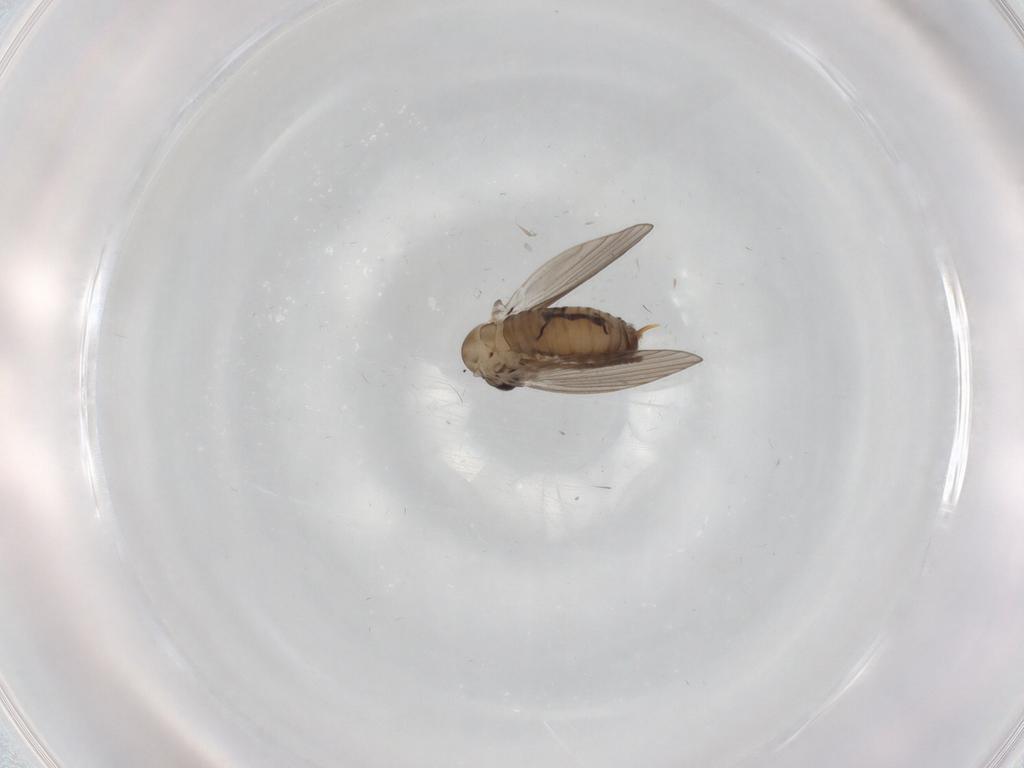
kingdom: Animalia
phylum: Arthropoda
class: Insecta
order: Diptera
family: Psychodidae
